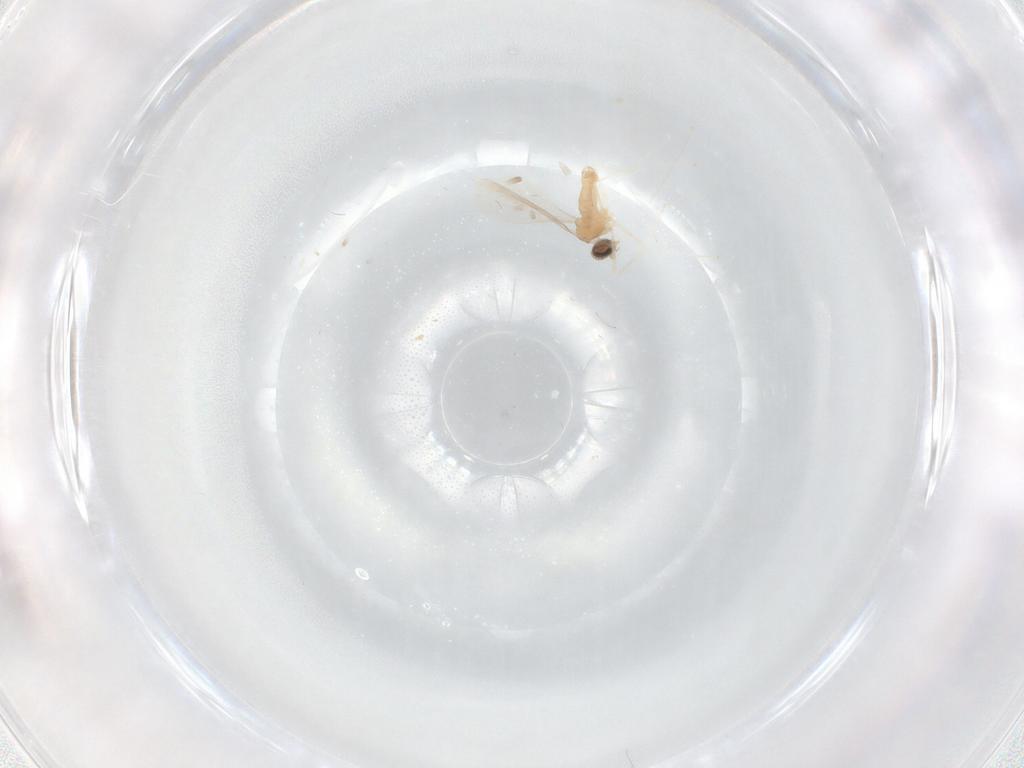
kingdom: Animalia
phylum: Arthropoda
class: Insecta
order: Diptera
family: Cecidomyiidae
